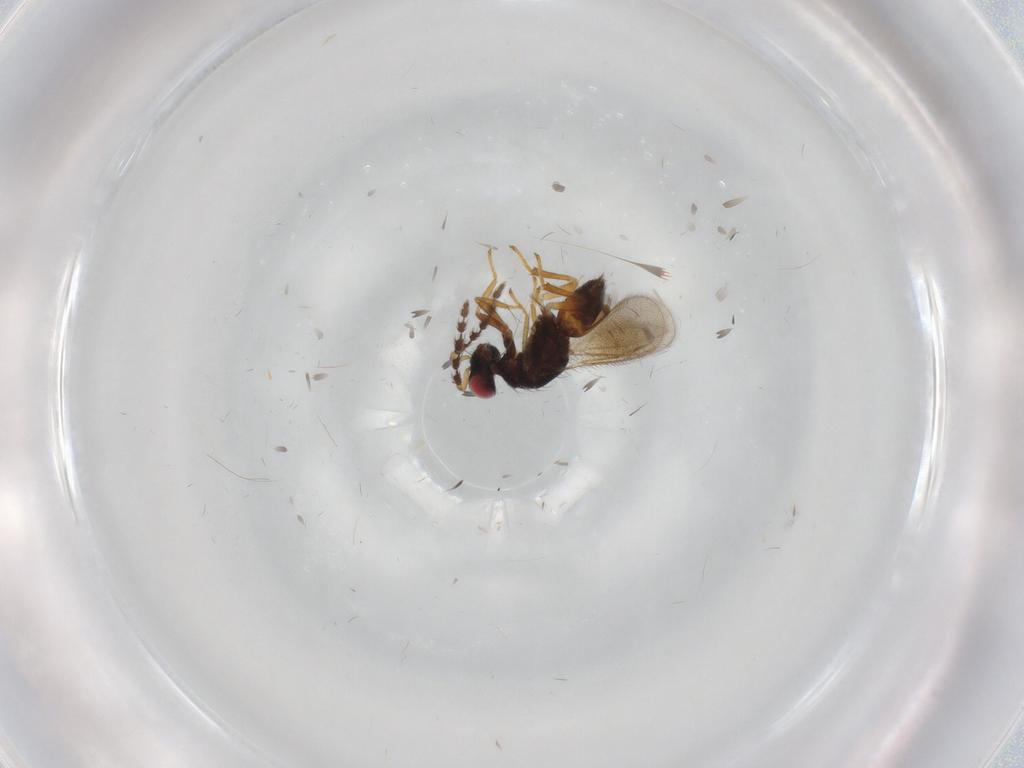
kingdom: Animalia
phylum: Arthropoda
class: Insecta
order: Hymenoptera
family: Eulophidae
